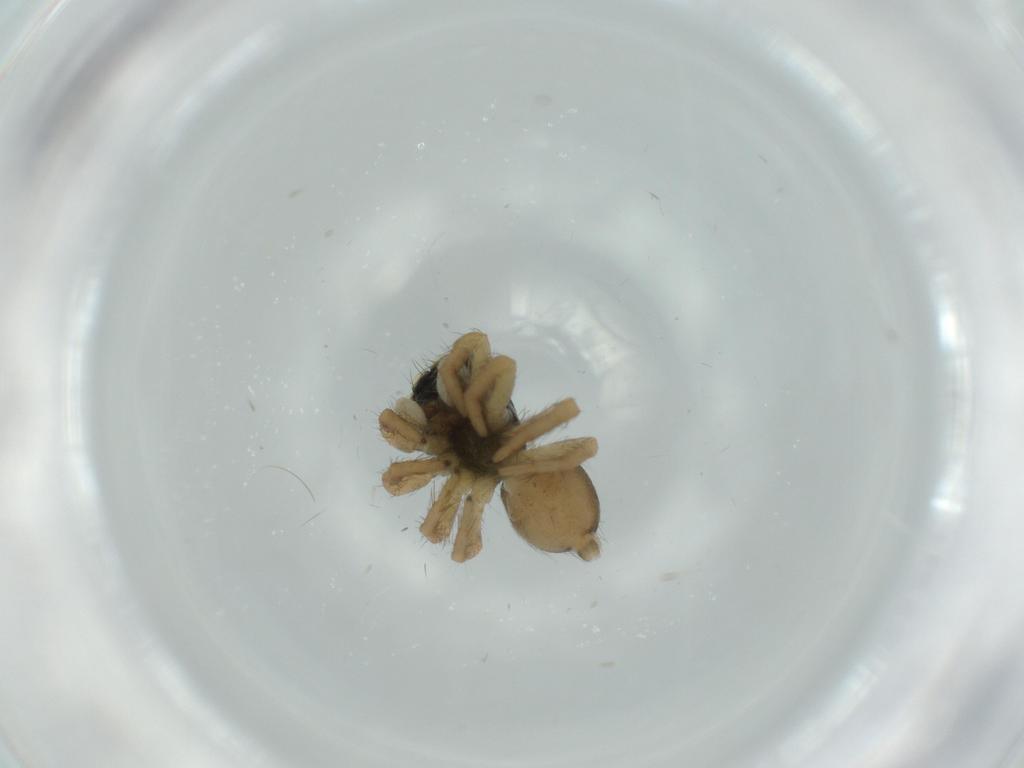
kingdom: Animalia
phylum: Arthropoda
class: Arachnida
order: Araneae
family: Salticidae
